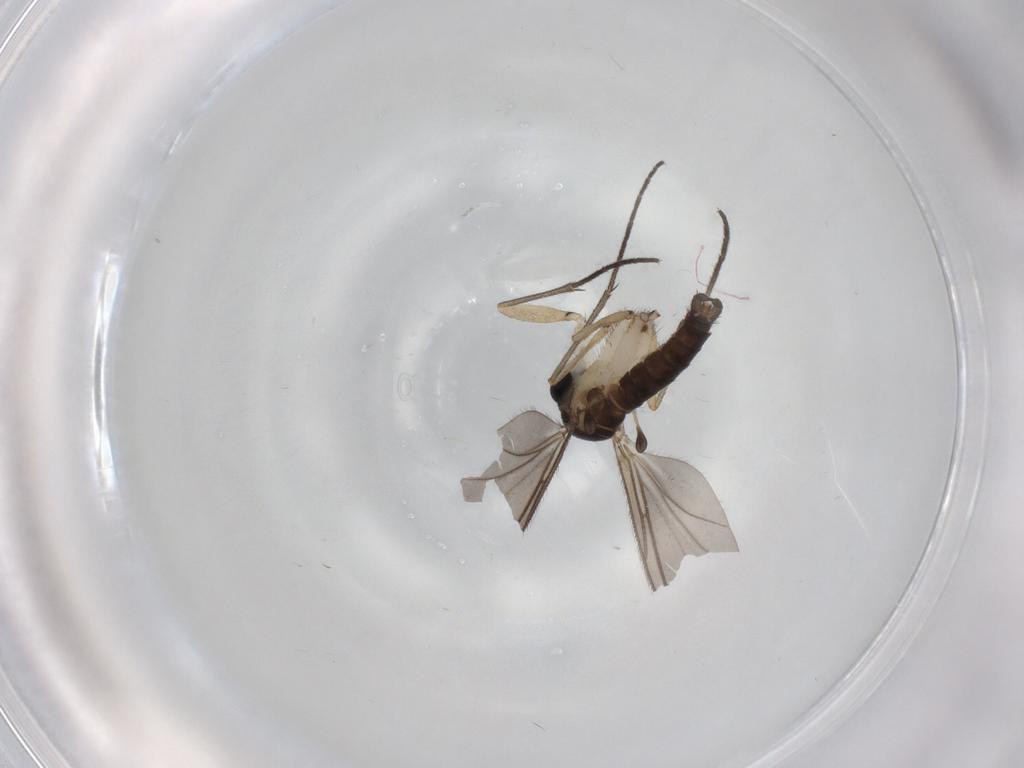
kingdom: Animalia
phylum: Arthropoda
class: Insecta
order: Diptera
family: Sciaridae
